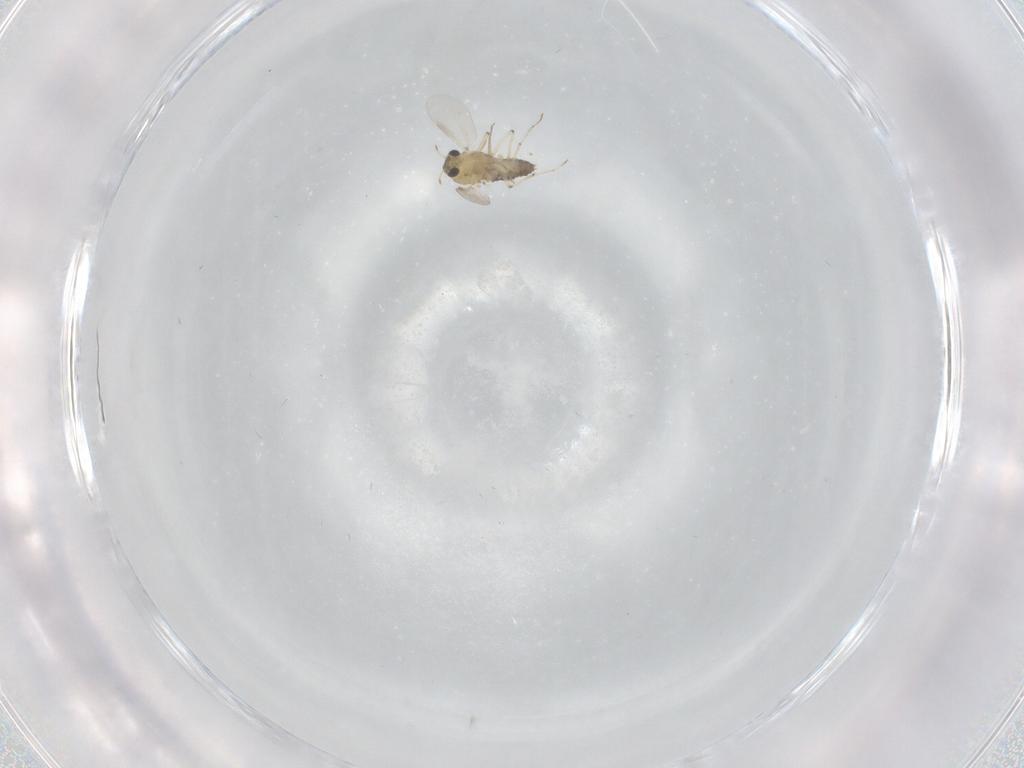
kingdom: Animalia
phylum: Arthropoda
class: Insecta
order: Diptera
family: Chironomidae
